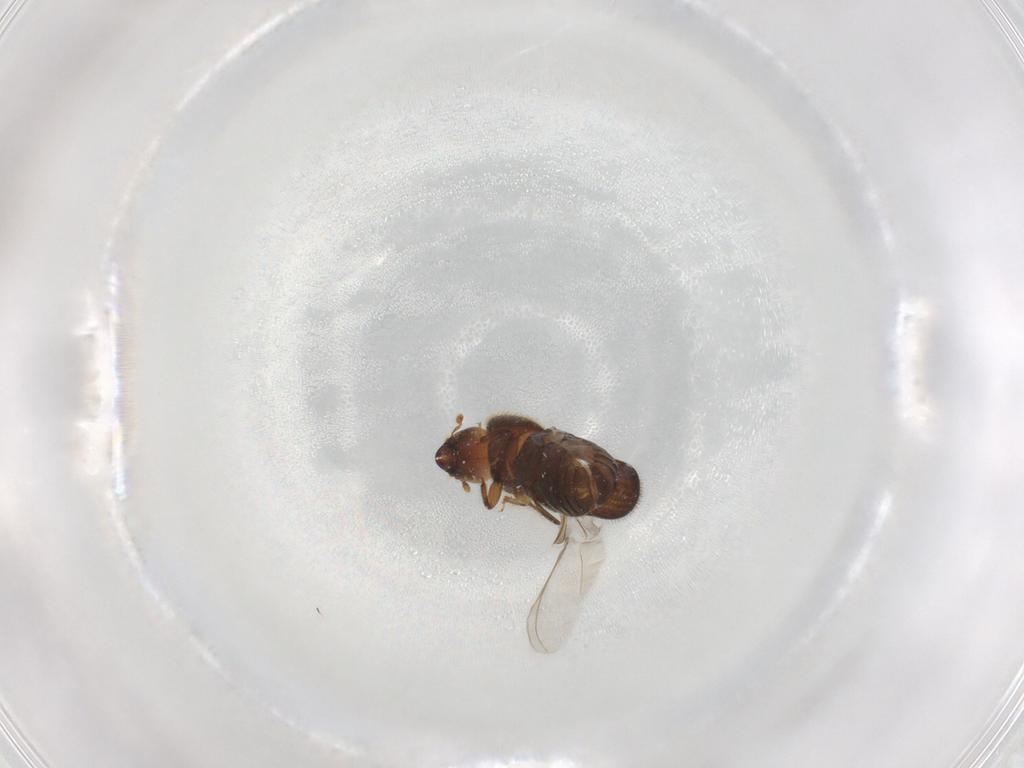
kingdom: Animalia
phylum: Arthropoda
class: Insecta
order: Coleoptera
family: Curculionidae
